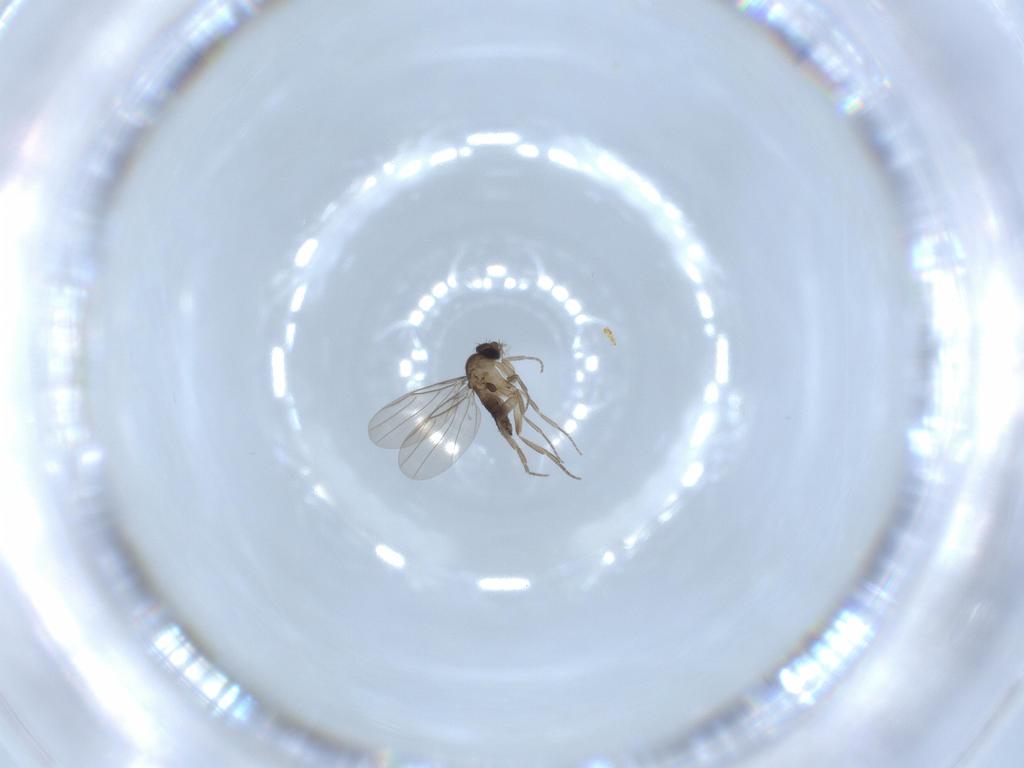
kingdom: Animalia
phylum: Arthropoda
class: Insecta
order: Diptera
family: Phoridae
